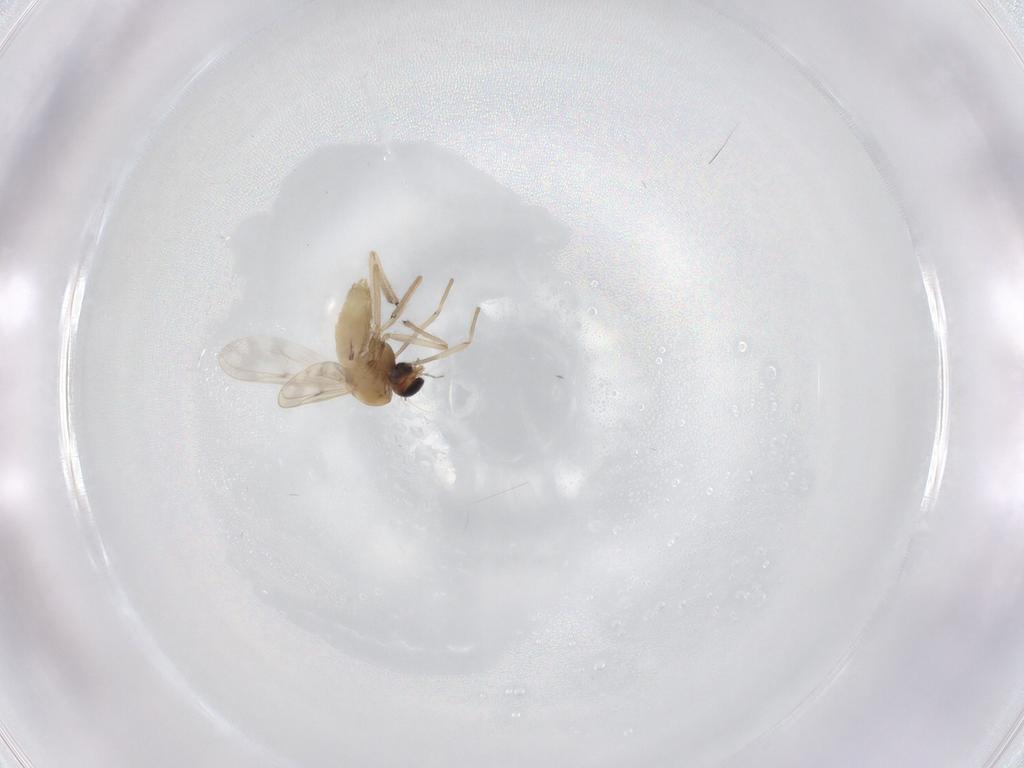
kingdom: Animalia
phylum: Arthropoda
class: Insecta
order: Diptera
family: Chironomidae
